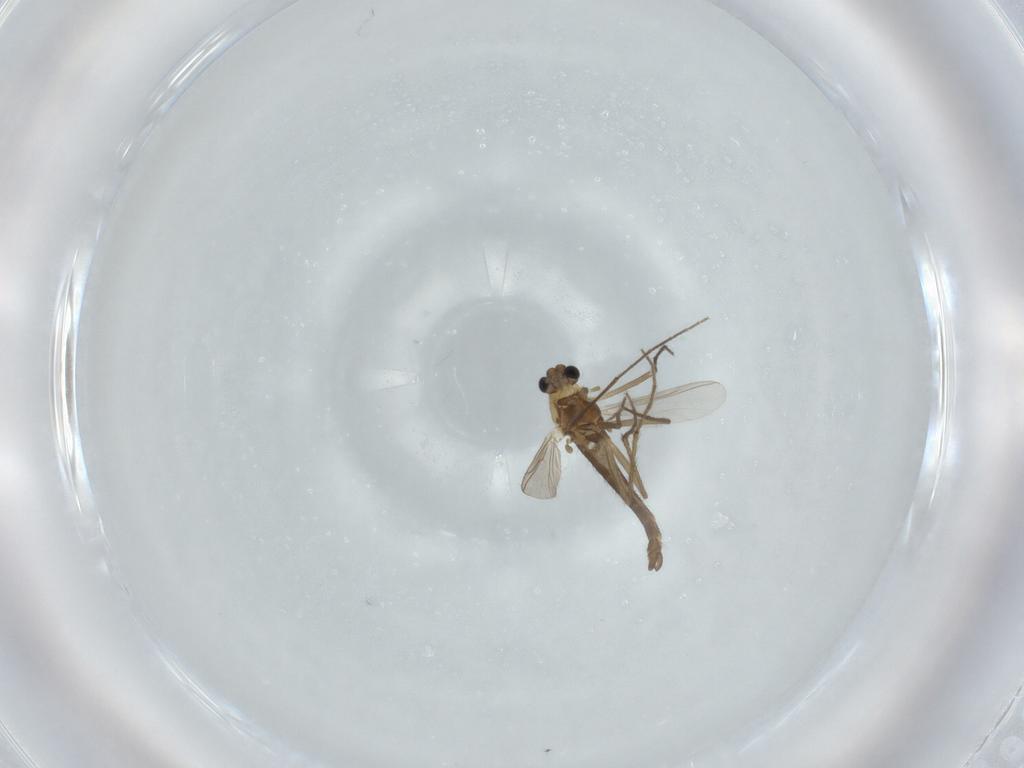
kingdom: Animalia
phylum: Arthropoda
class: Insecta
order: Diptera
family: Chironomidae
